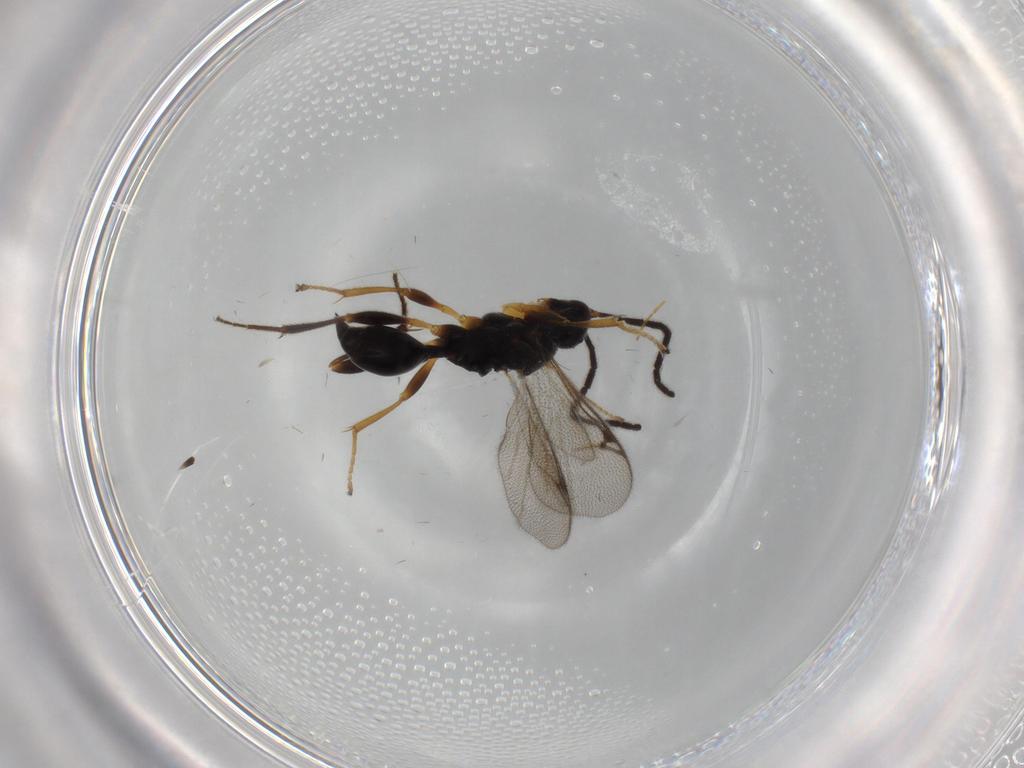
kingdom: Animalia
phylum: Arthropoda
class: Insecta
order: Hymenoptera
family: Proctotrupidae
